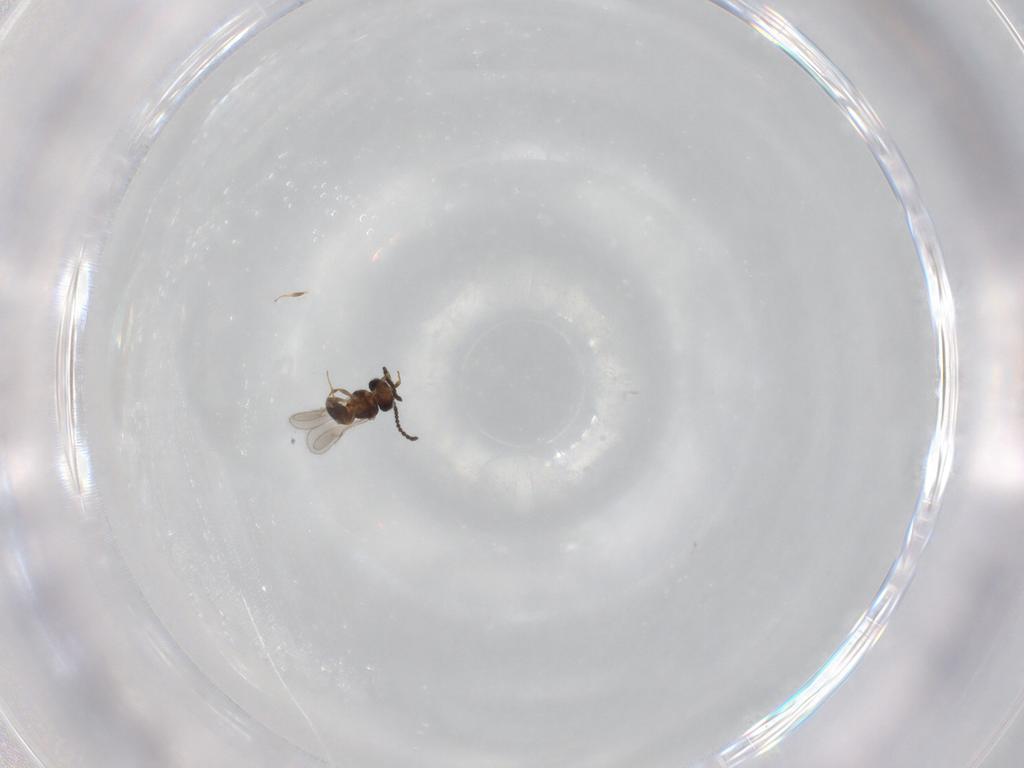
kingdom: Animalia
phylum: Arthropoda
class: Insecta
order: Hymenoptera
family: Scelionidae
